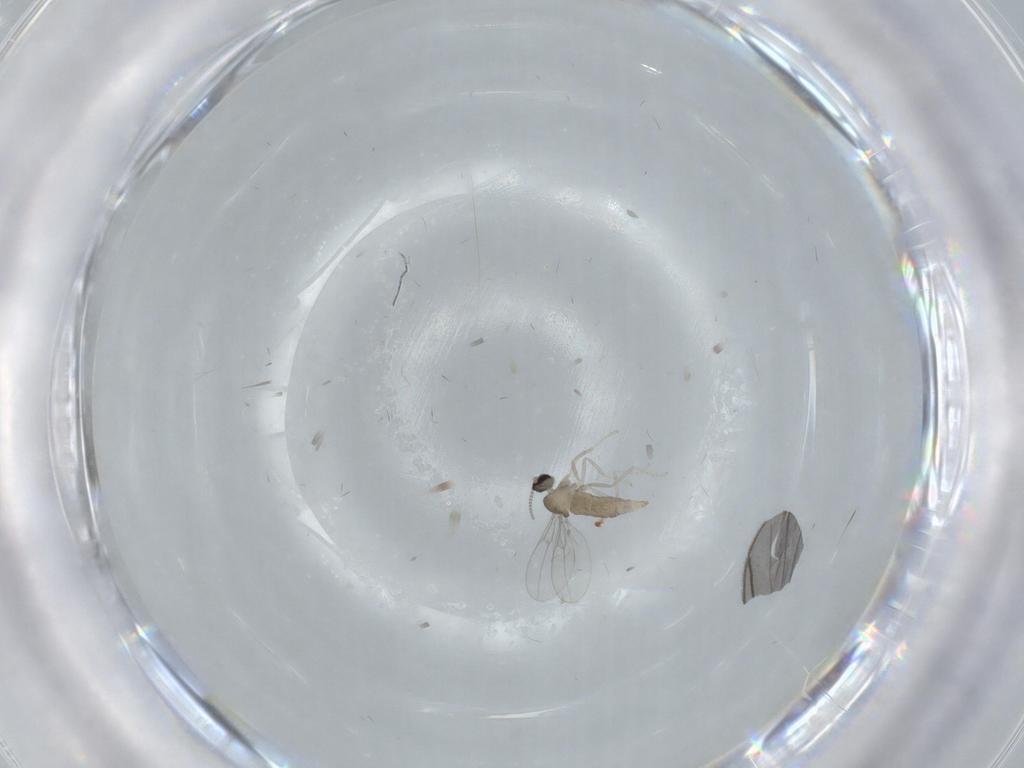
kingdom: Animalia
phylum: Arthropoda
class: Insecta
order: Diptera
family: Cecidomyiidae
